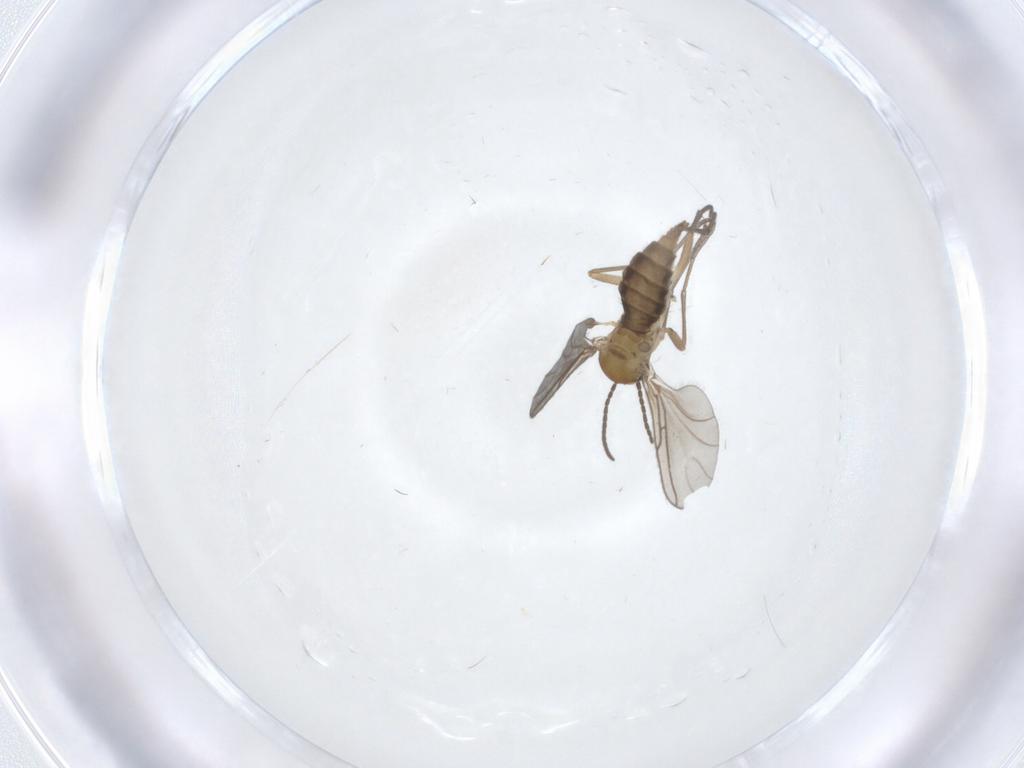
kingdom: Animalia
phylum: Arthropoda
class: Insecta
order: Diptera
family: Sciaridae
